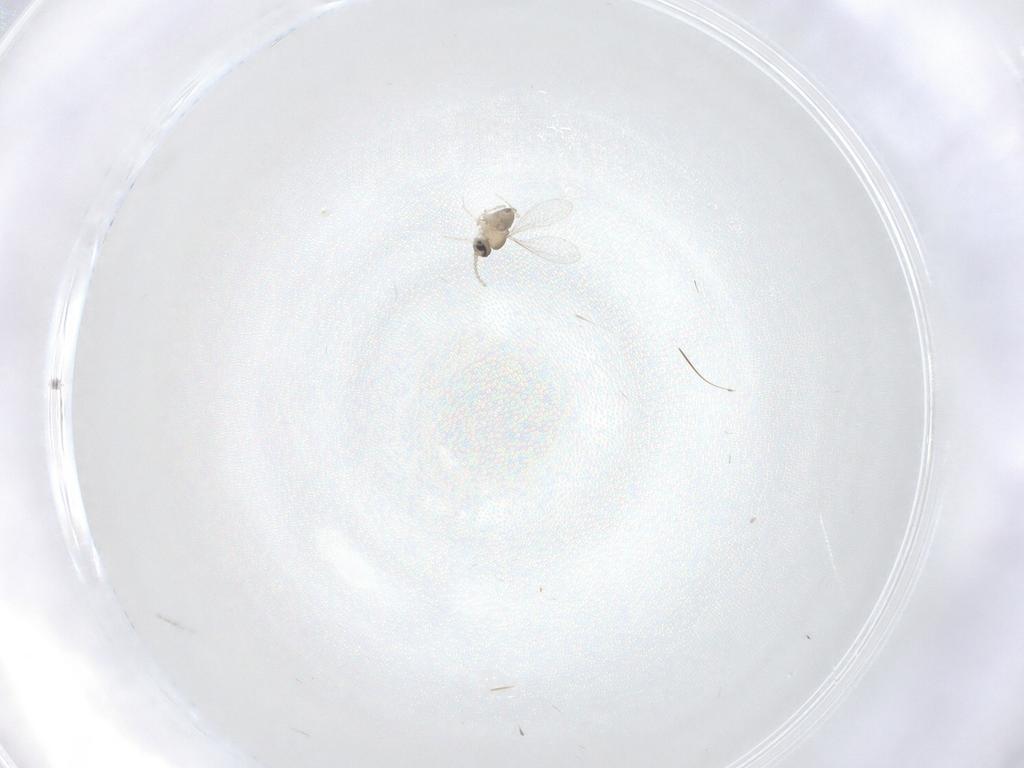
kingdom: Animalia
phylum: Arthropoda
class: Insecta
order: Diptera
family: Cecidomyiidae
